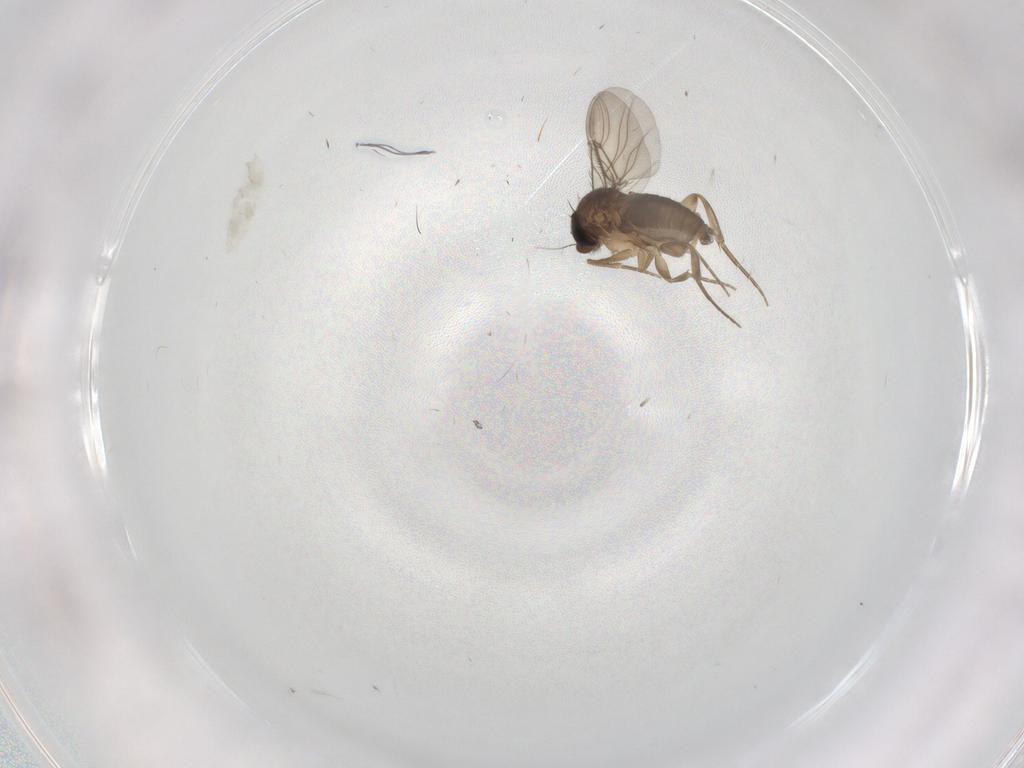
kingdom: Animalia
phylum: Arthropoda
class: Insecta
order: Diptera
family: Phoridae
